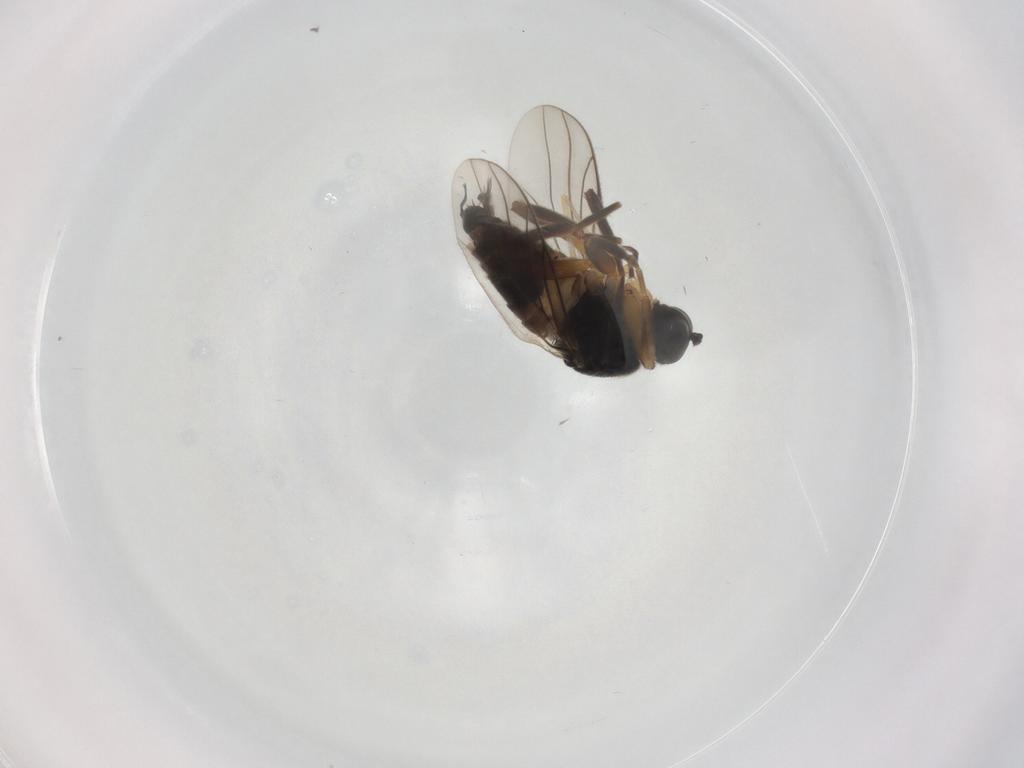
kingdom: Animalia
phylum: Arthropoda
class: Insecta
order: Diptera
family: Hybotidae
